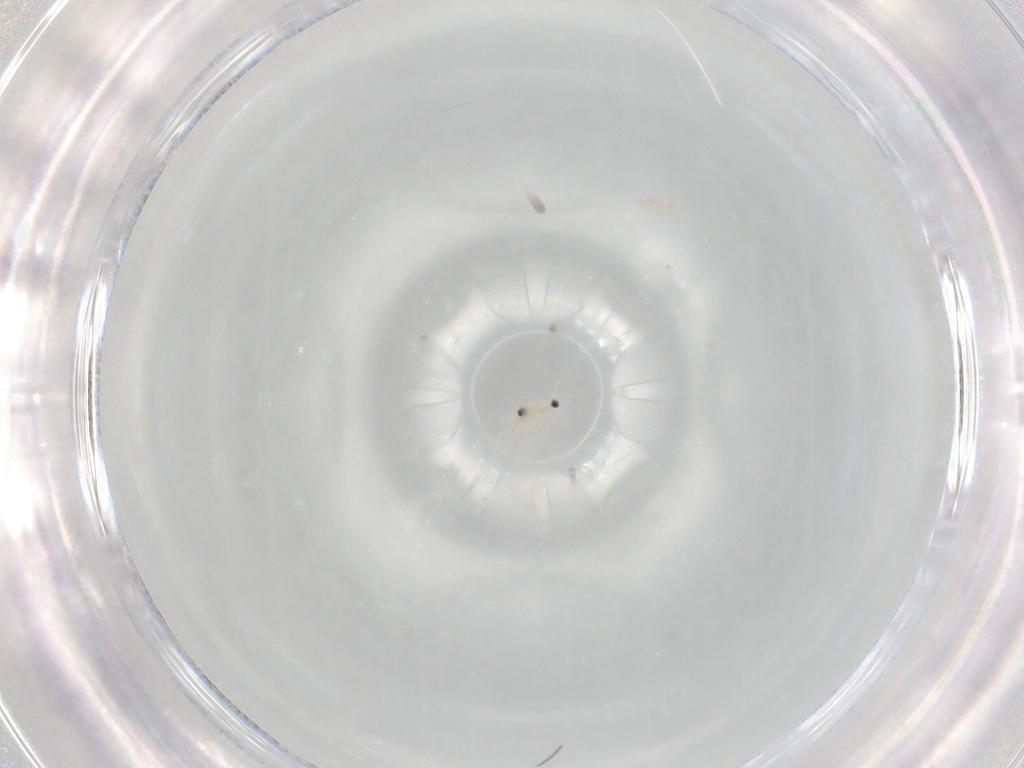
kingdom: Animalia
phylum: Arthropoda
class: Insecta
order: Hemiptera
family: Aleyrodidae
